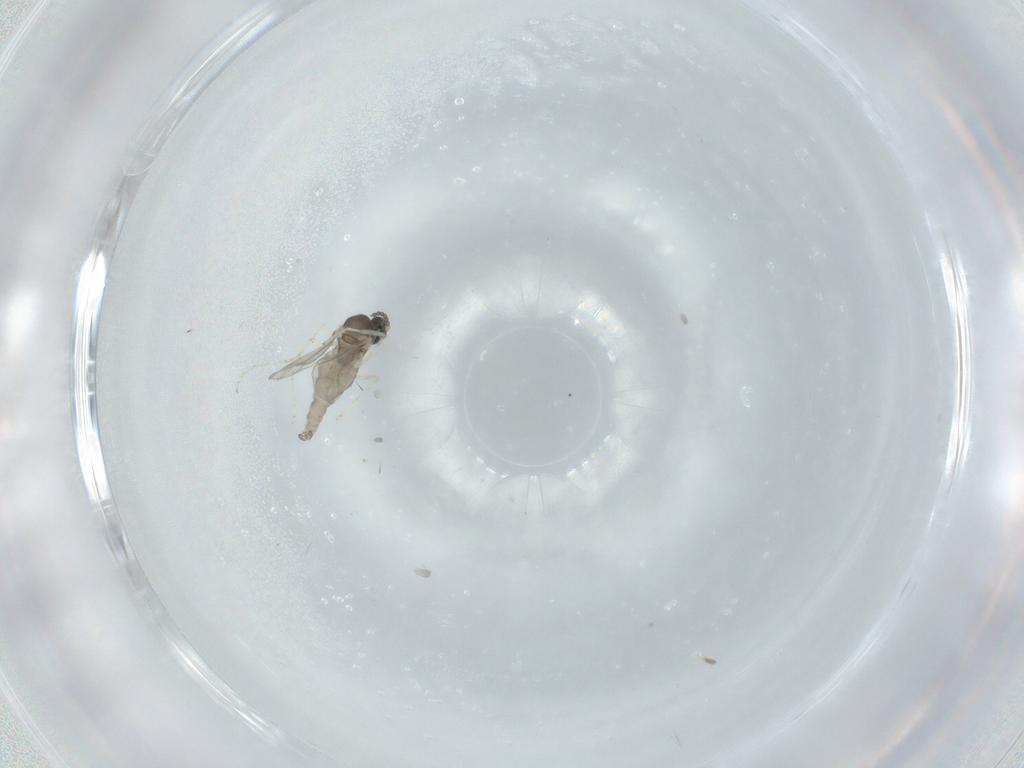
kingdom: Animalia
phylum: Arthropoda
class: Insecta
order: Diptera
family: Cecidomyiidae
